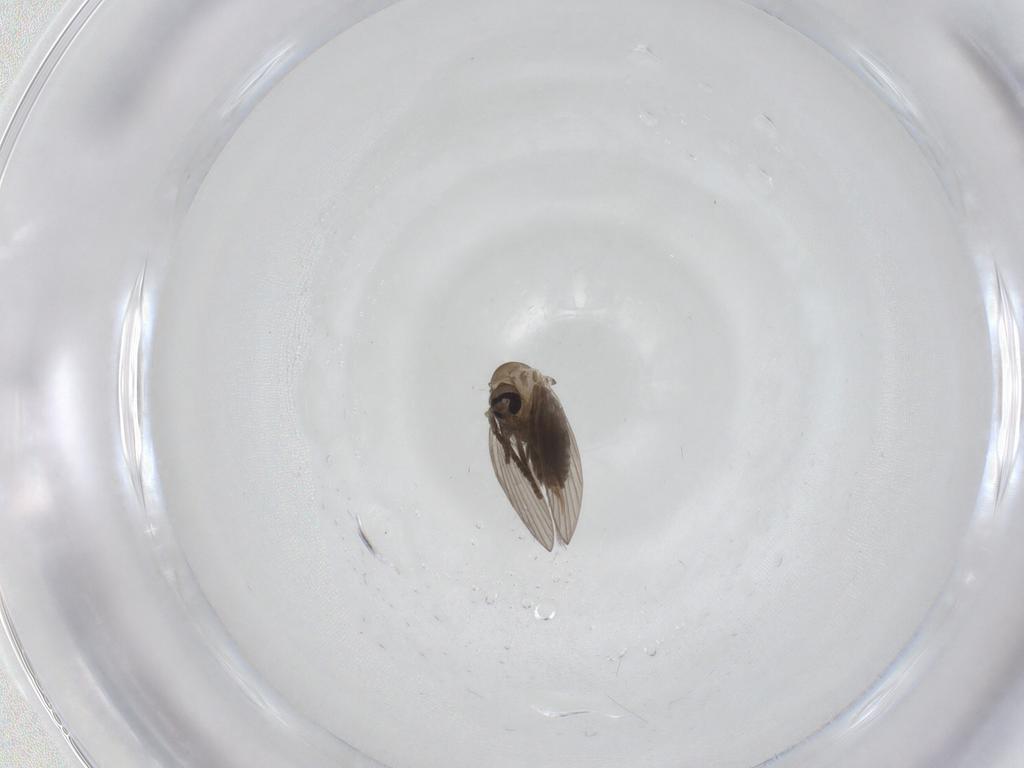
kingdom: Animalia
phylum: Arthropoda
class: Insecta
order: Diptera
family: Psychodidae
